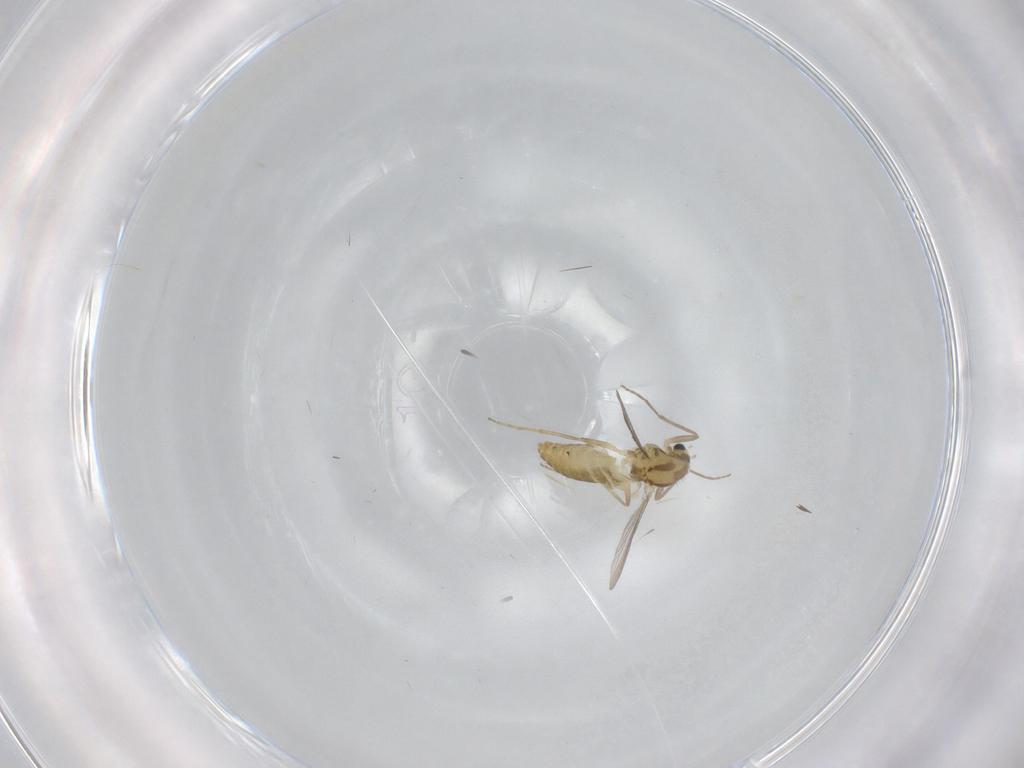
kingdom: Animalia
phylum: Arthropoda
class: Insecta
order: Diptera
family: Chironomidae
